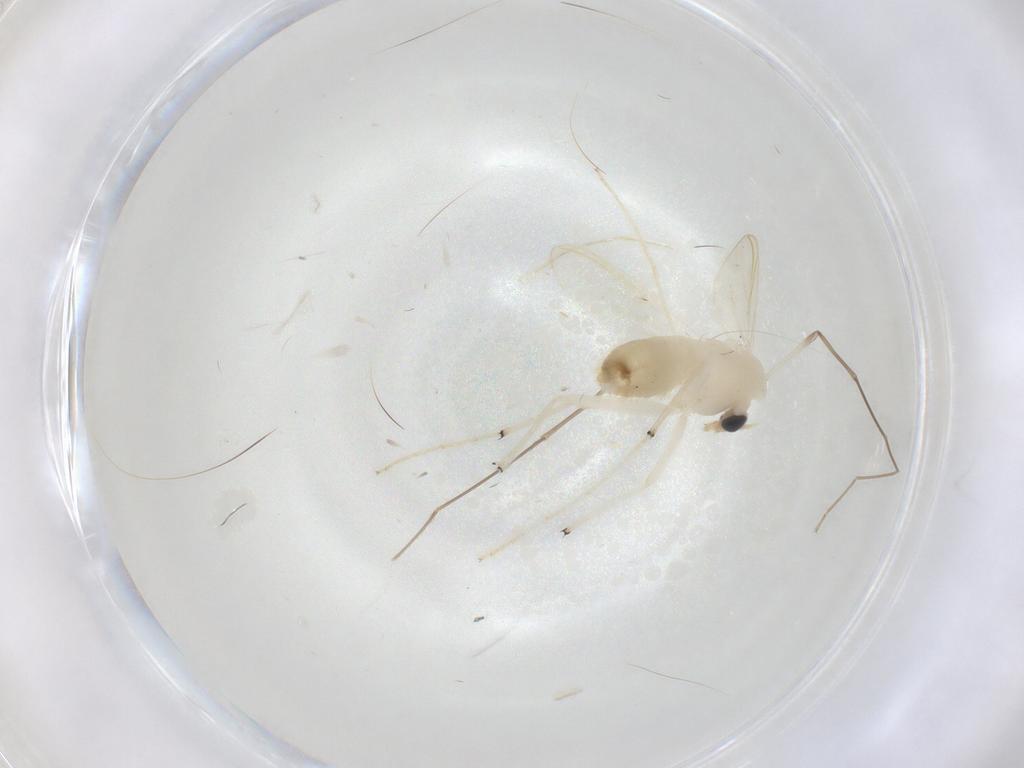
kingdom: Animalia
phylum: Arthropoda
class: Insecta
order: Diptera
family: Chironomidae
